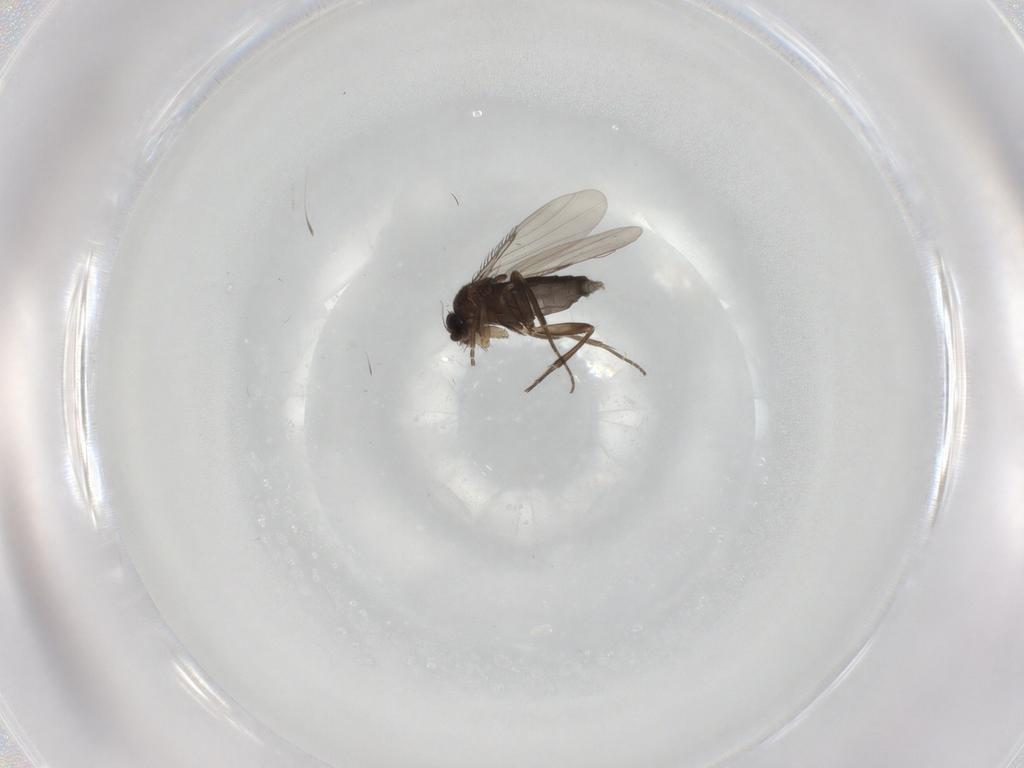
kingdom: Animalia
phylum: Arthropoda
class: Insecta
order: Diptera
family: Phoridae
